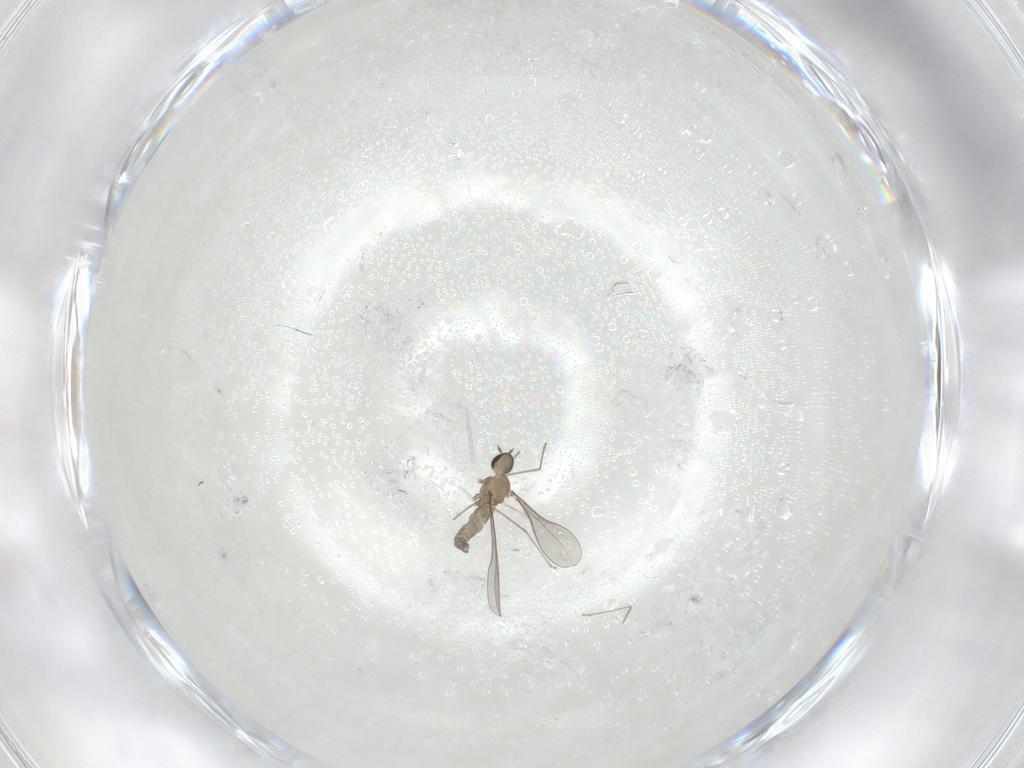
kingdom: Animalia
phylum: Arthropoda
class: Insecta
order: Diptera
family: Cecidomyiidae
